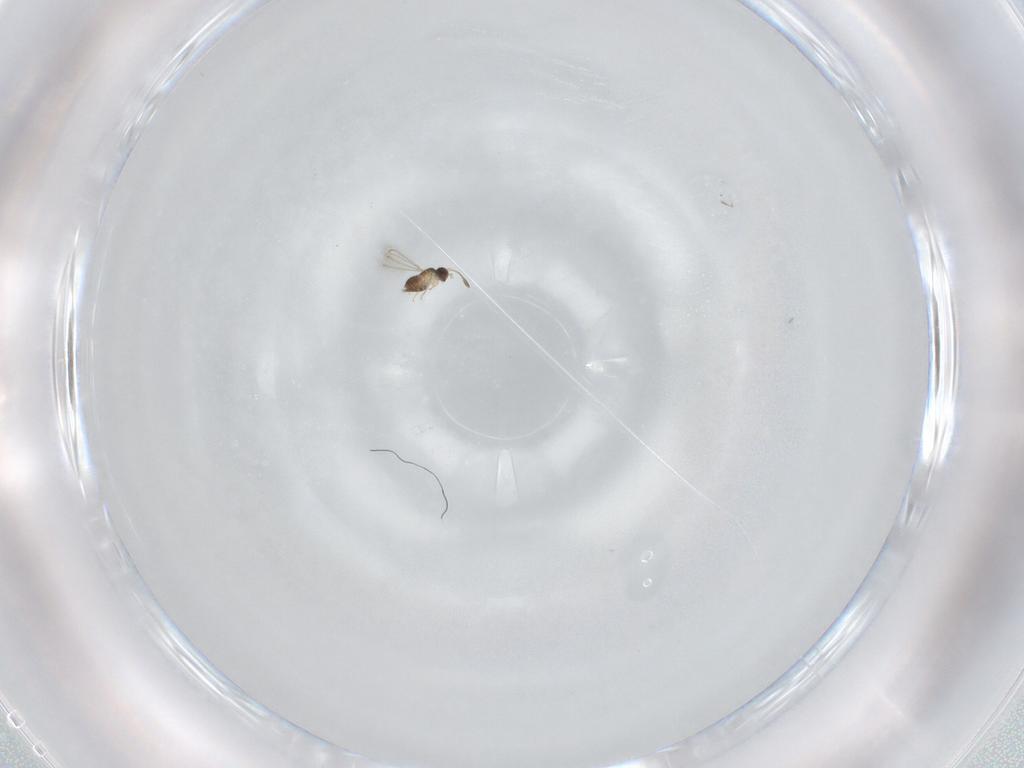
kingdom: Animalia
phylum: Arthropoda
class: Insecta
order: Hymenoptera
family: Mymaridae
